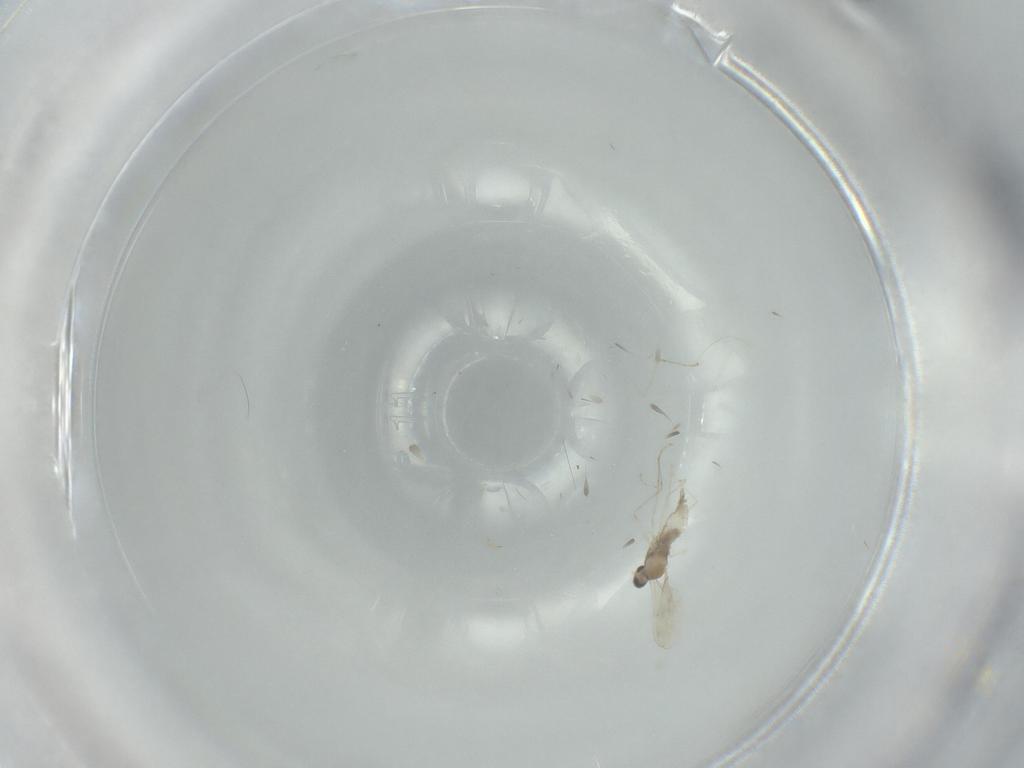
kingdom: Animalia
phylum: Arthropoda
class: Insecta
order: Diptera
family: Cecidomyiidae
